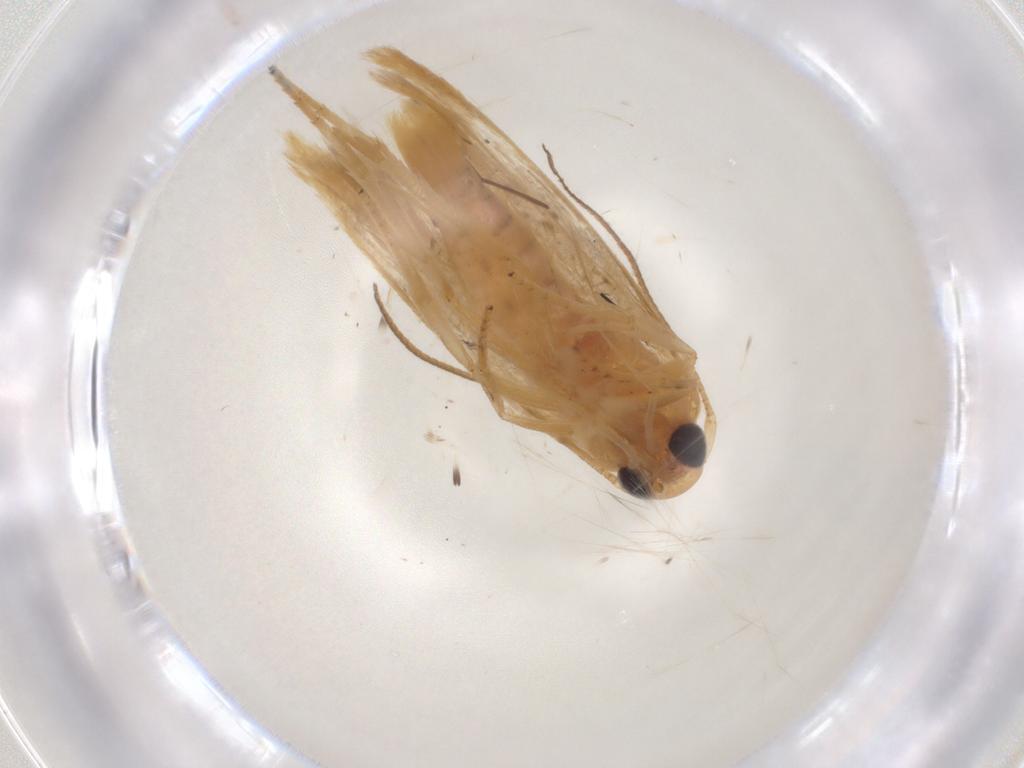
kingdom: Animalia
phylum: Arthropoda
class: Insecta
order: Lepidoptera
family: Stathmopodidae
